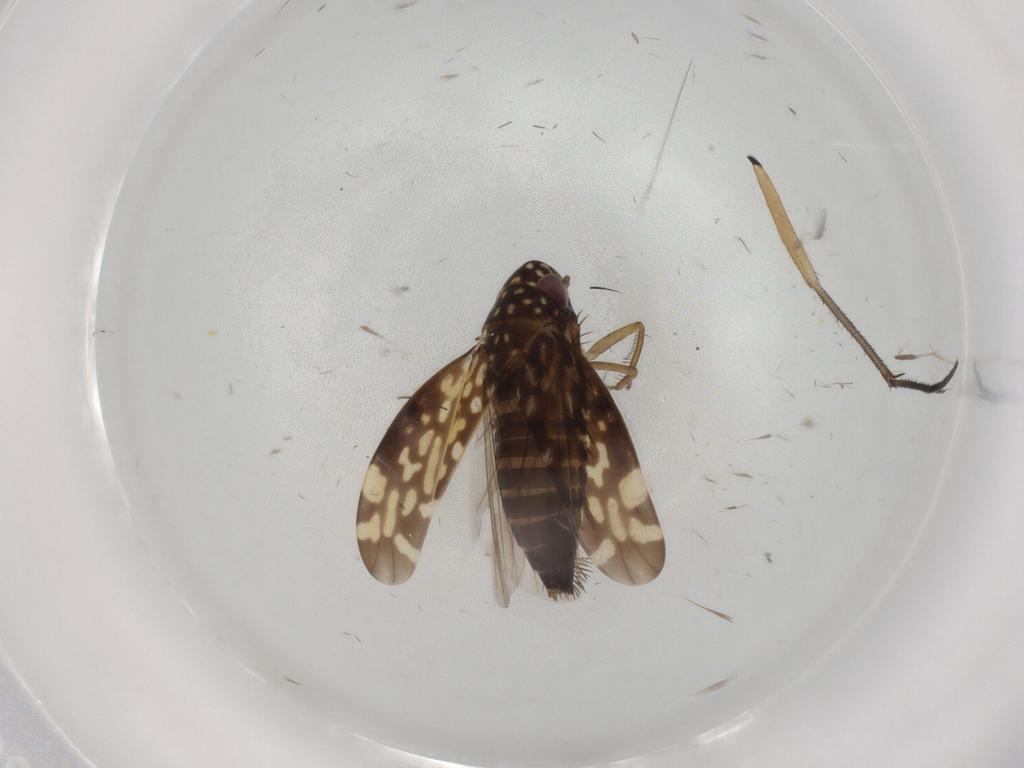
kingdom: Animalia
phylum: Arthropoda
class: Insecta
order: Hemiptera
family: Cicadellidae
